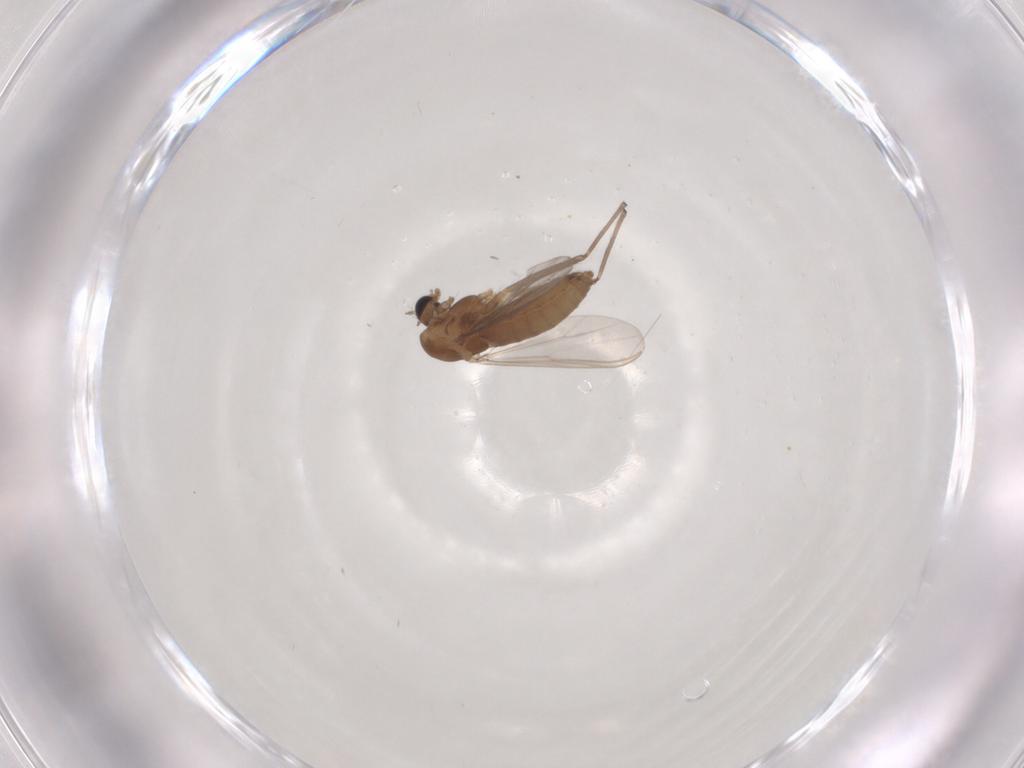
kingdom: Animalia
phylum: Arthropoda
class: Insecta
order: Diptera
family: Chironomidae
